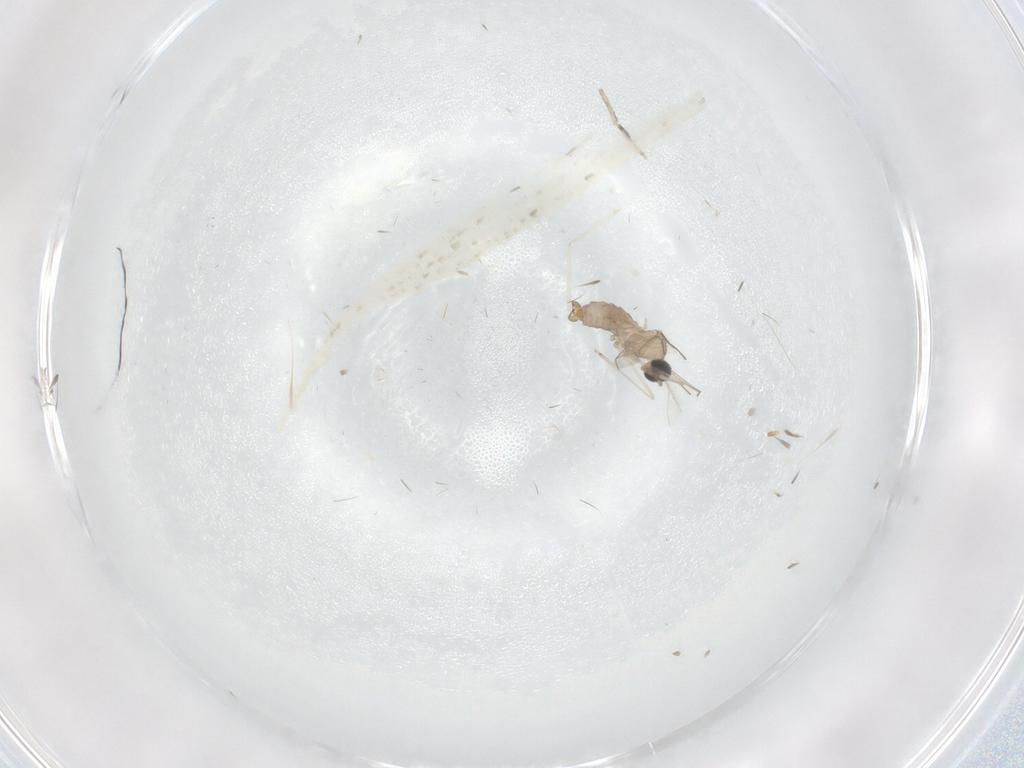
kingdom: Animalia
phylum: Arthropoda
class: Insecta
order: Diptera
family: Cecidomyiidae
